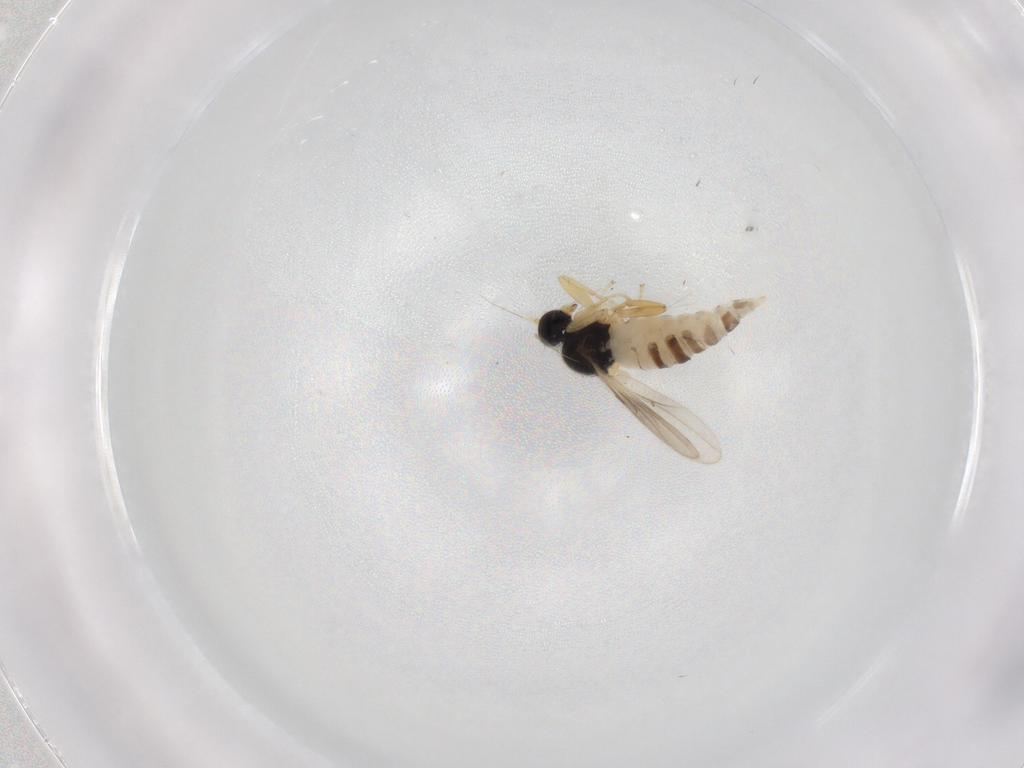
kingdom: Animalia
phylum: Arthropoda
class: Insecta
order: Diptera
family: Hybotidae
